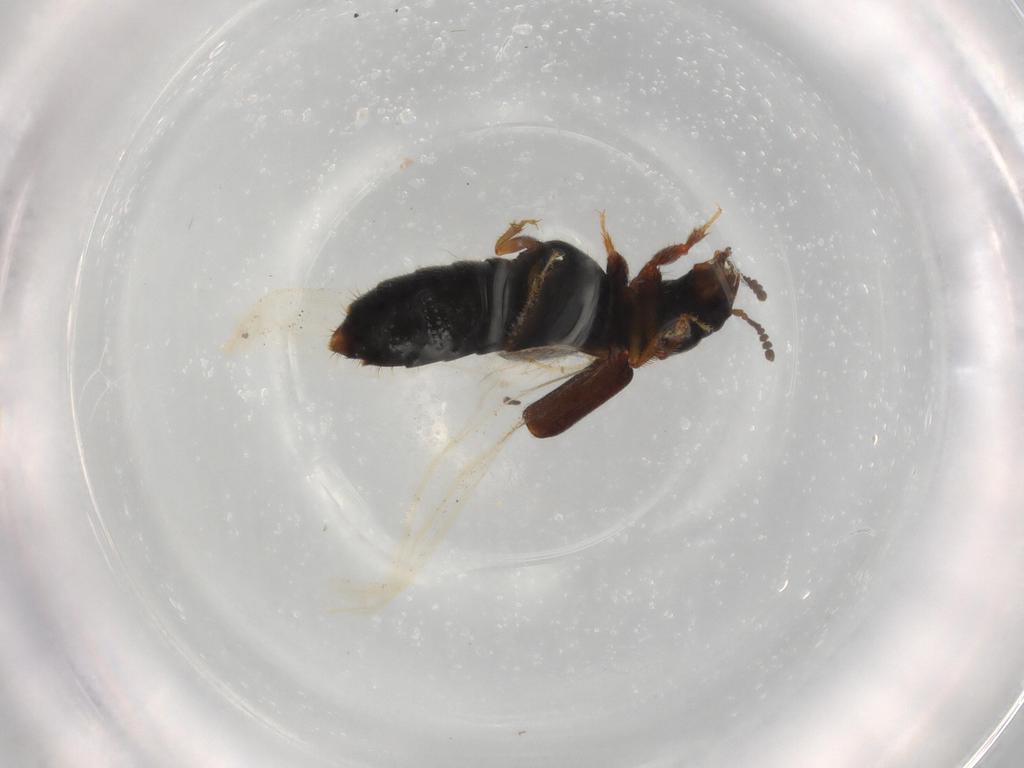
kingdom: Animalia
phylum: Arthropoda
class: Insecta
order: Coleoptera
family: Staphylinidae
